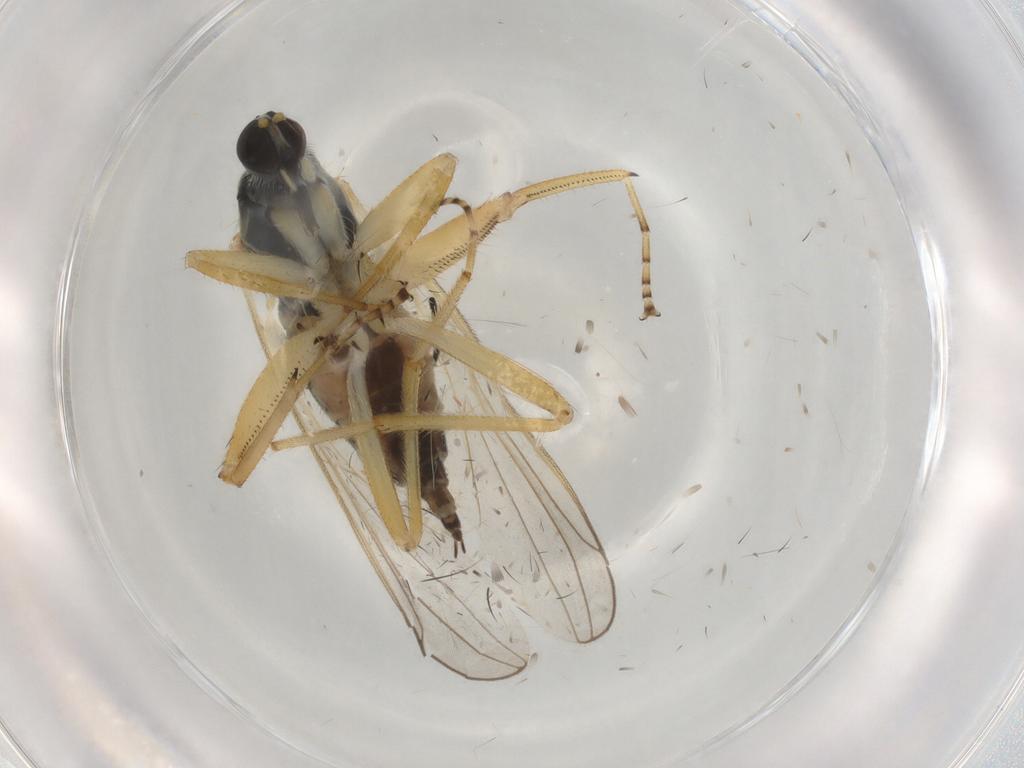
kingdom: Animalia
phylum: Arthropoda
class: Insecta
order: Diptera
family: Hybotidae
